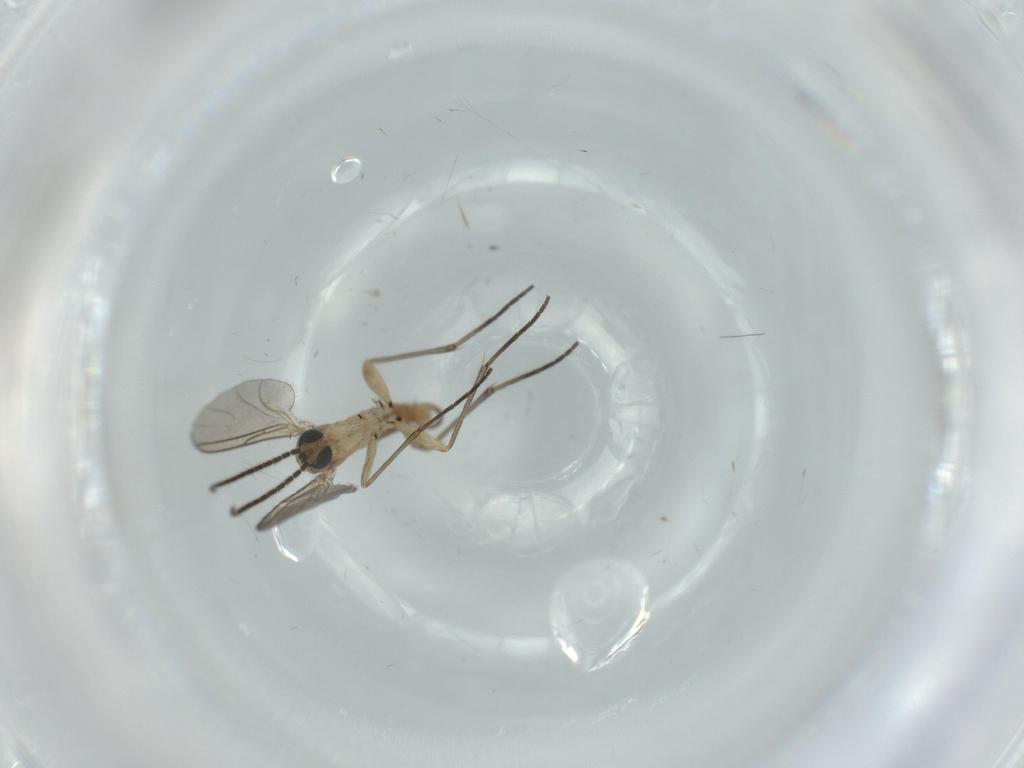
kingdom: Animalia
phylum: Arthropoda
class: Insecta
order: Diptera
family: Sciaridae
